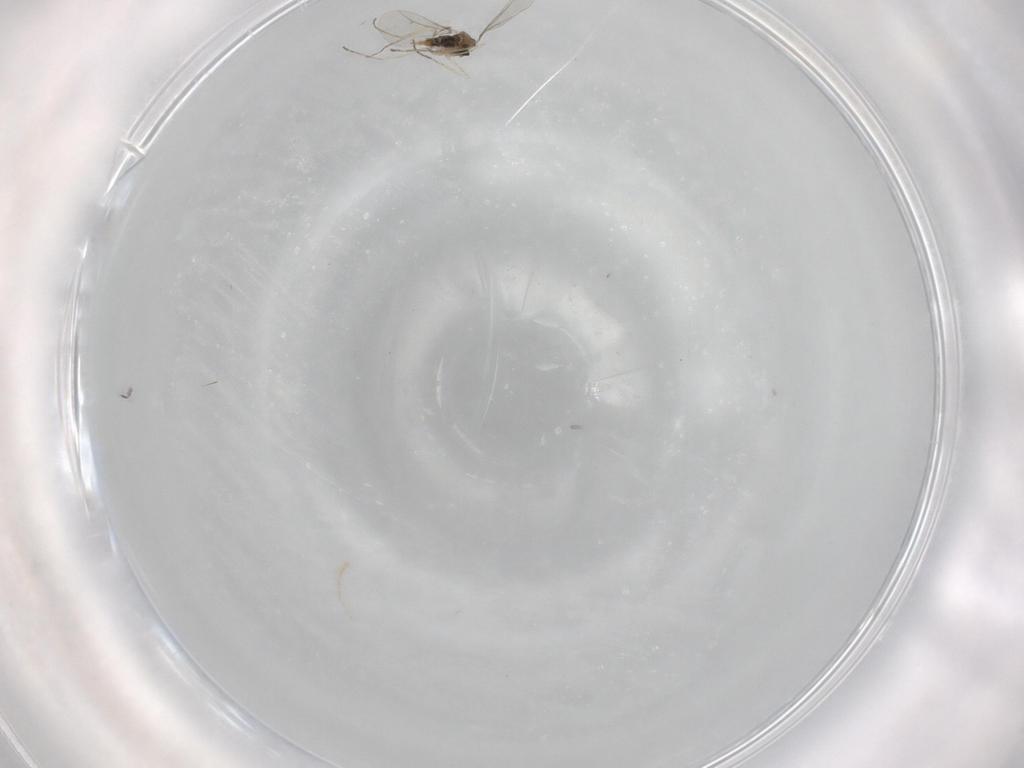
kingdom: Animalia
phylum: Arthropoda
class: Insecta
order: Diptera
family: Cecidomyiidae
